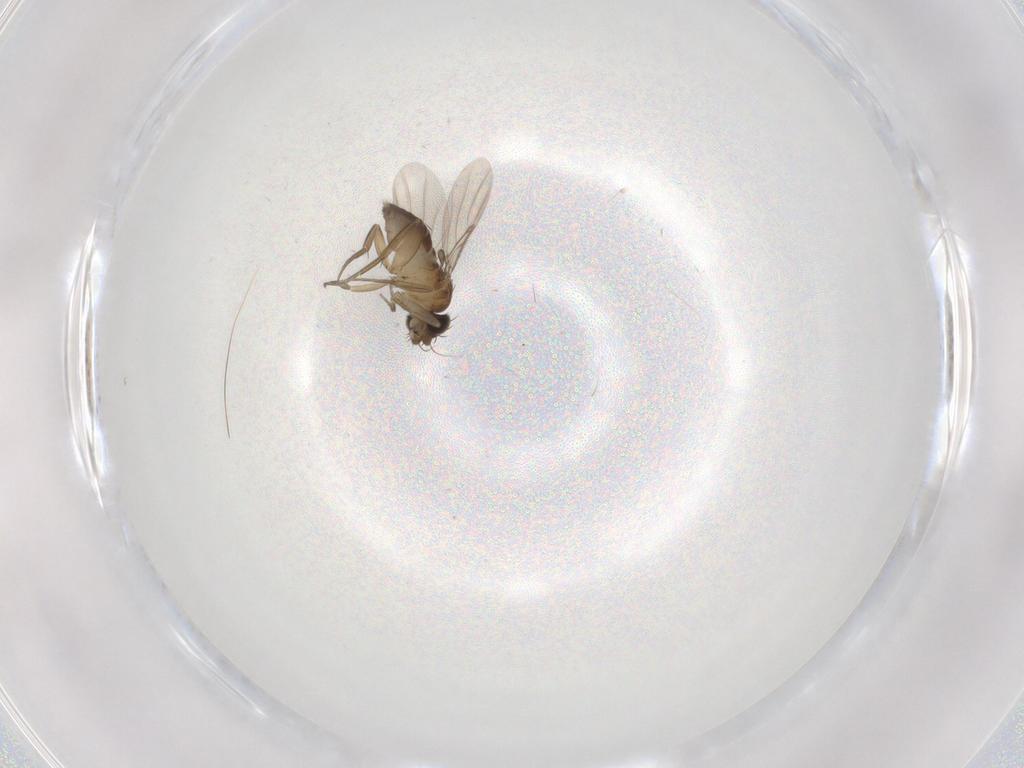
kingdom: Animalia
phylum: Arthropoda
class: Insecta
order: Diptera
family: Phoridae
